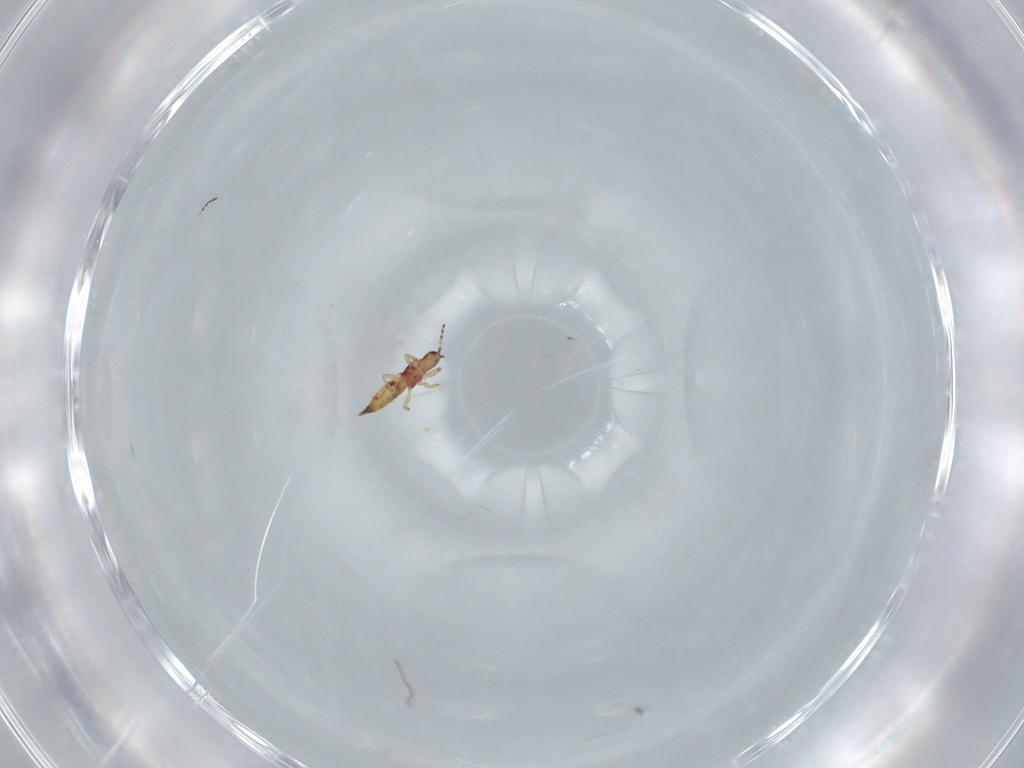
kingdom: Animalia
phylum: Arthropoda
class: Insecta
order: Thysanoptera
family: Phlaeothripidae
